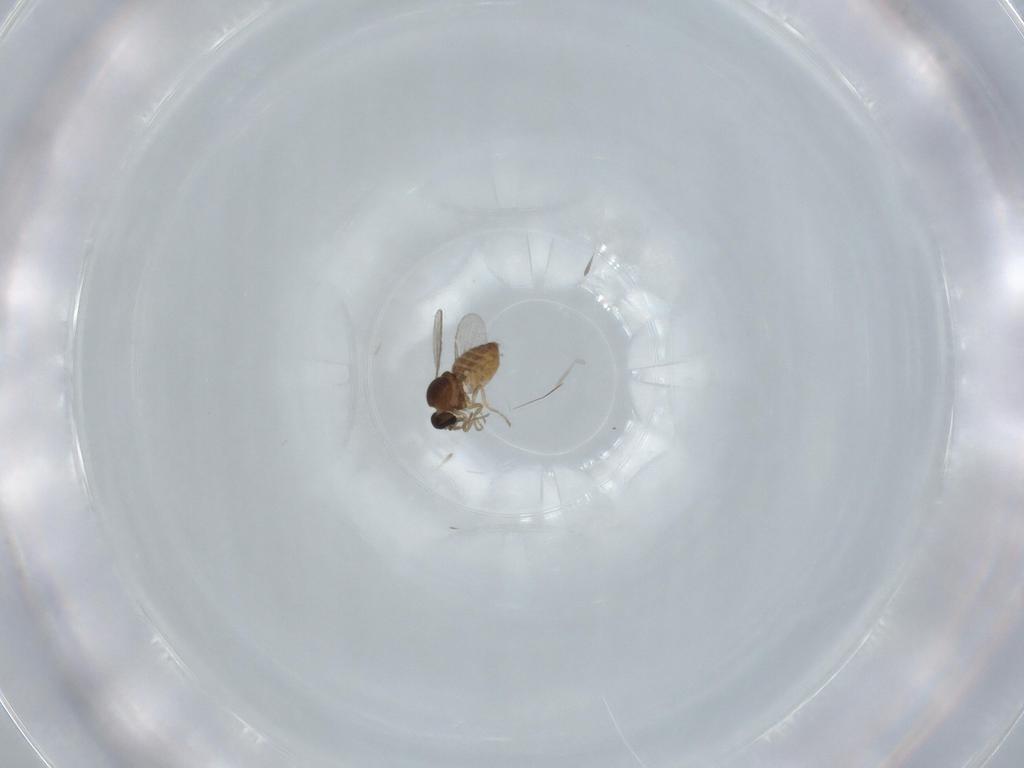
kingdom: Animalia
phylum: Arthropoda
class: Insecta
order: Diptera
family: Ceratopogonidae
